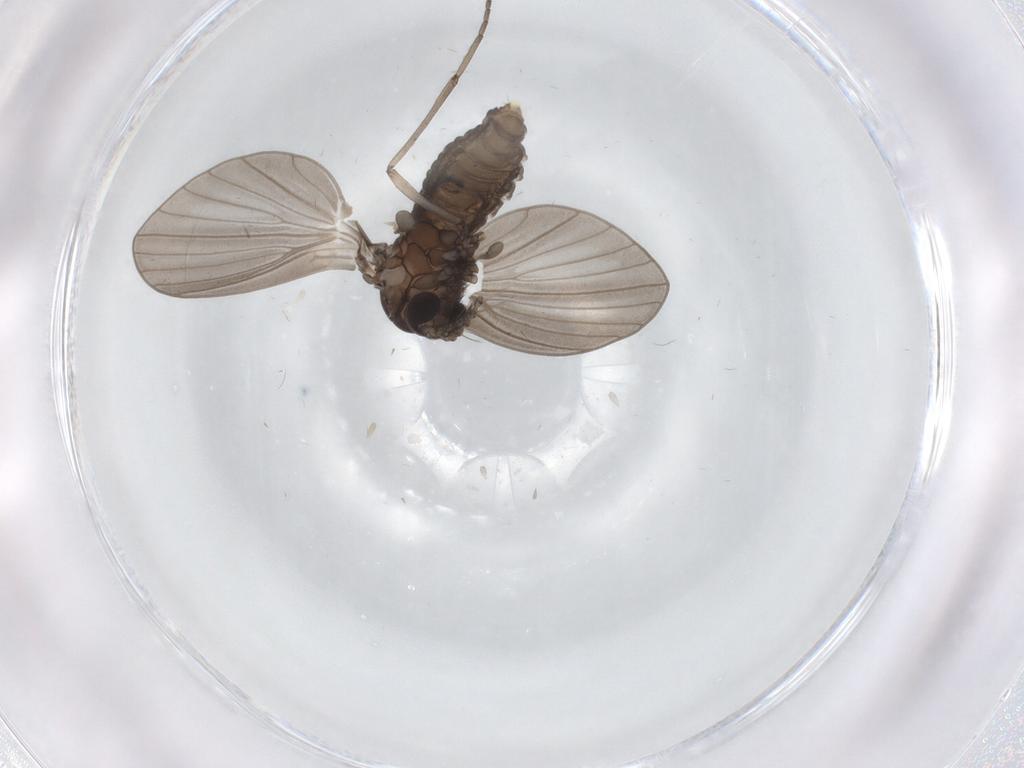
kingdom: Animalia
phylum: Arthropoda
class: Insecta
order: Diptera
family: Psychodidae
